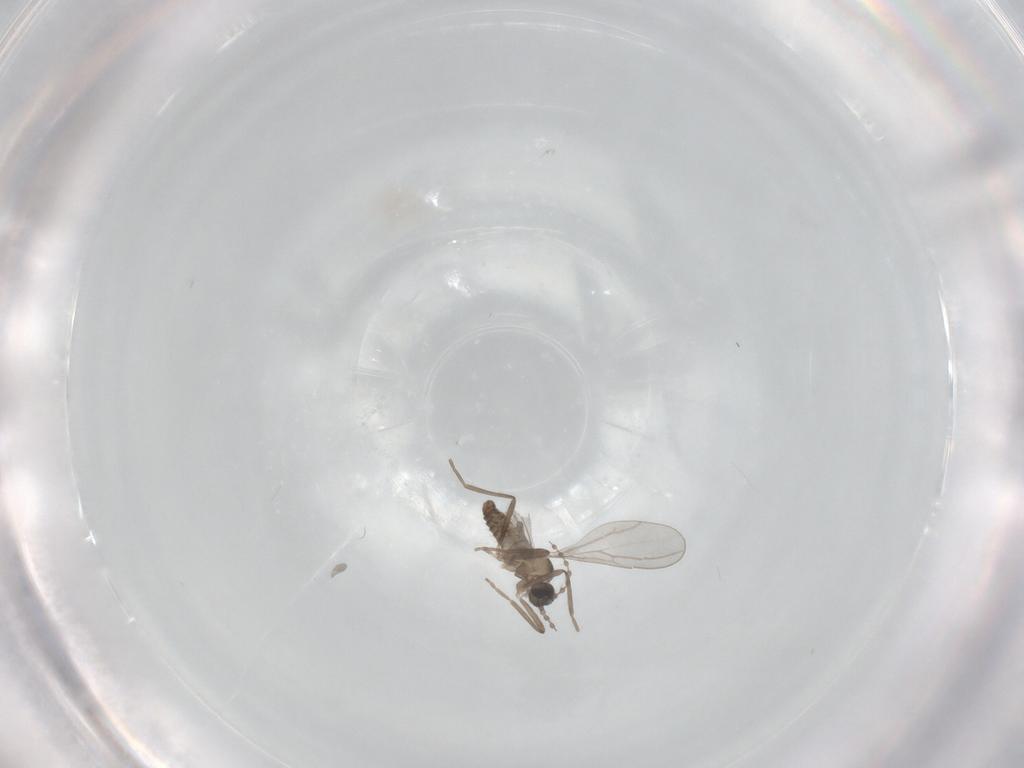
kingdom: Animalia
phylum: Arthropoda
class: Insecta
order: Diptera
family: Cecidomyiidae
